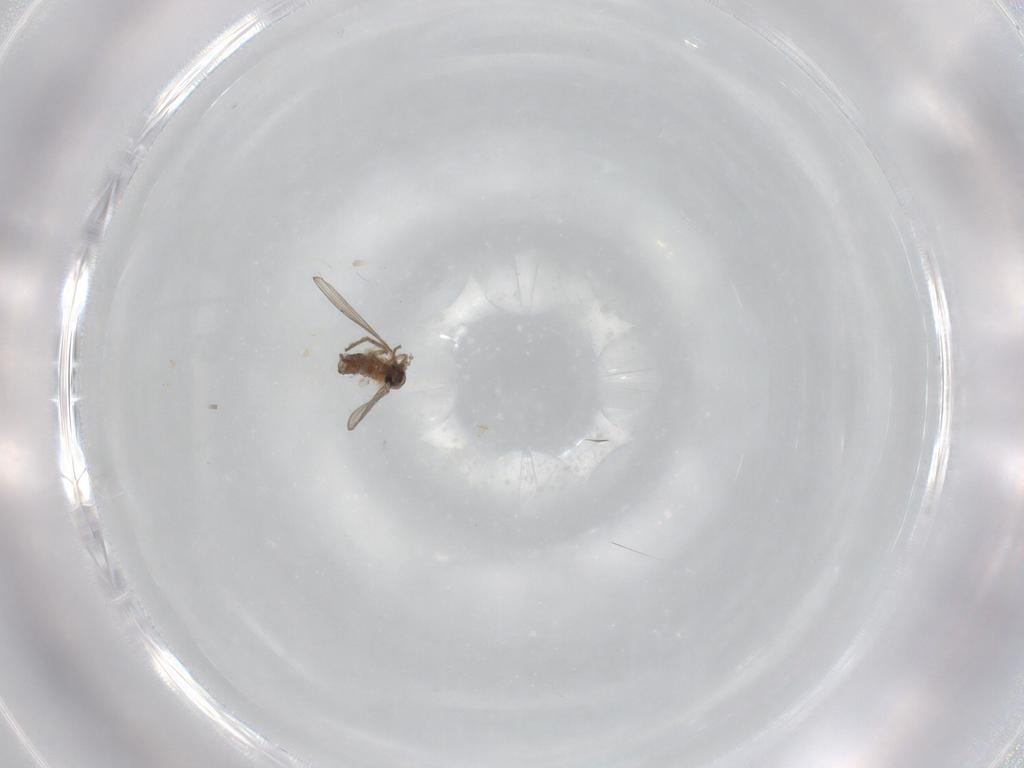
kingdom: Animalia
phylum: Arthropoda
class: Insecta
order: Diptera
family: Psychodidae
